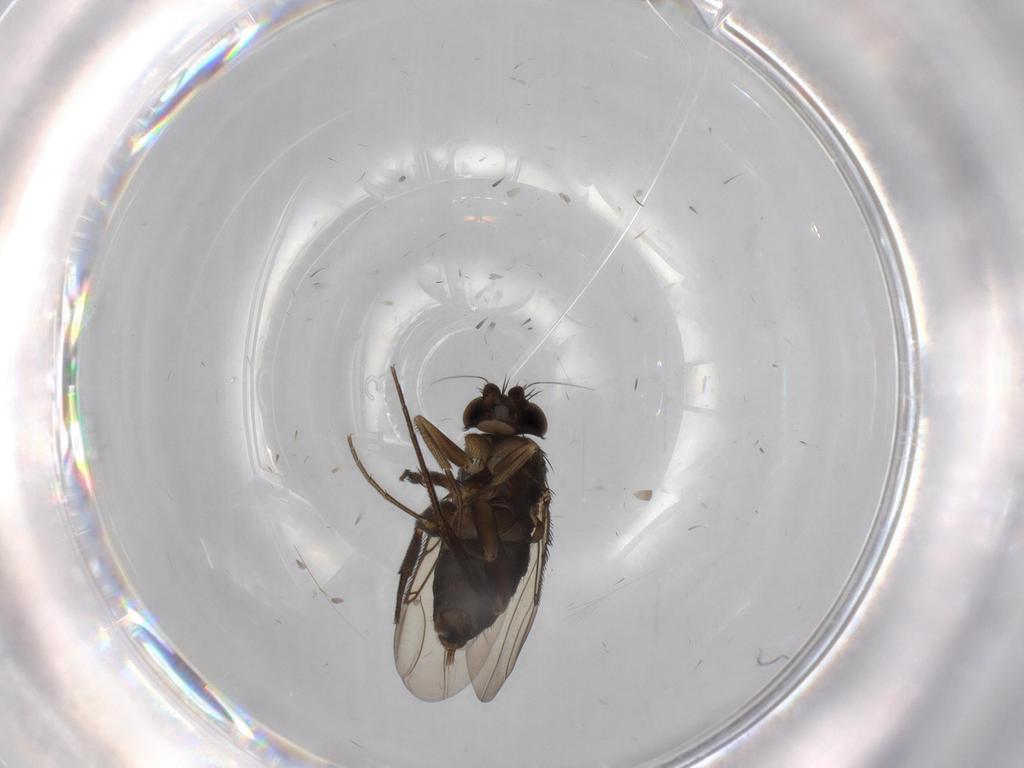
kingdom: Animalia
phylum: Arthropoda
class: Insecta
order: Diptera
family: Phoridae
